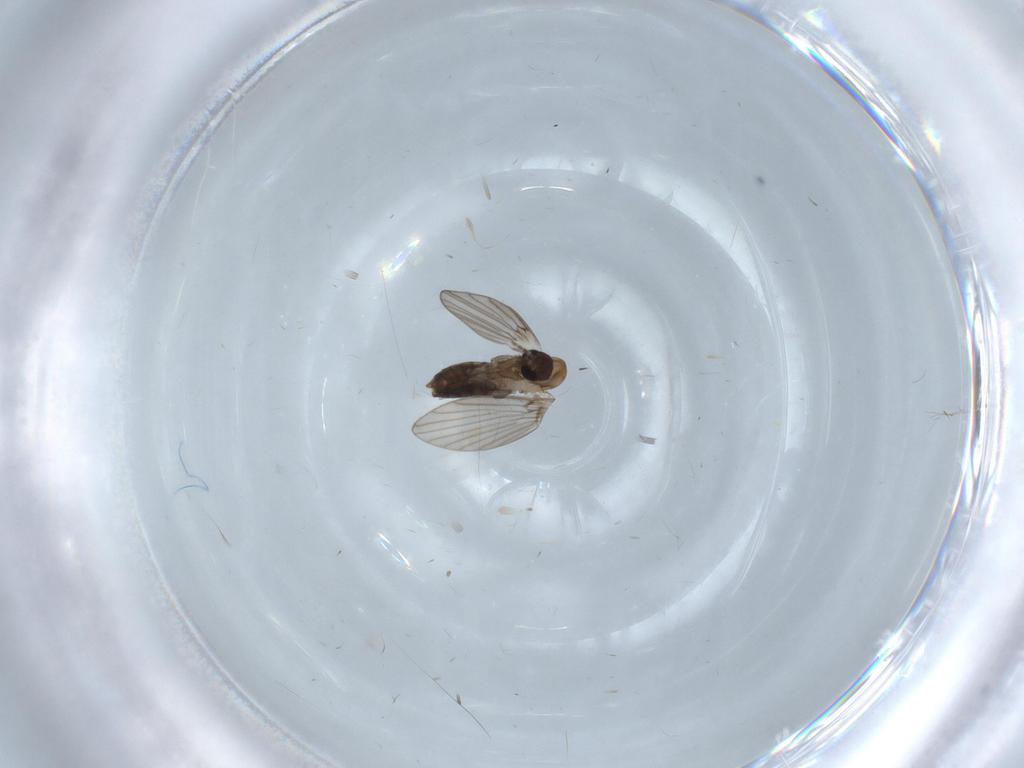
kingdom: Animalia
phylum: Arthropoda
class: Insecta
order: Diptera
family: Psychodidae
